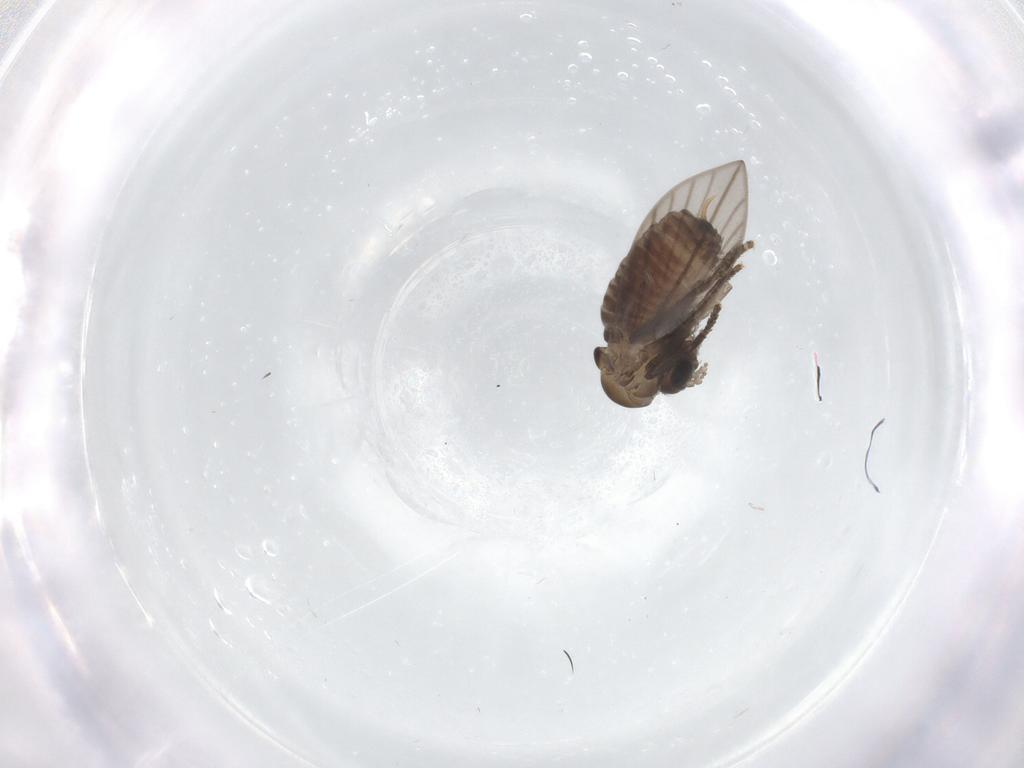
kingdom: Animalia
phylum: Arthropoda
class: Insecta
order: Diptera
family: Psychodidae
